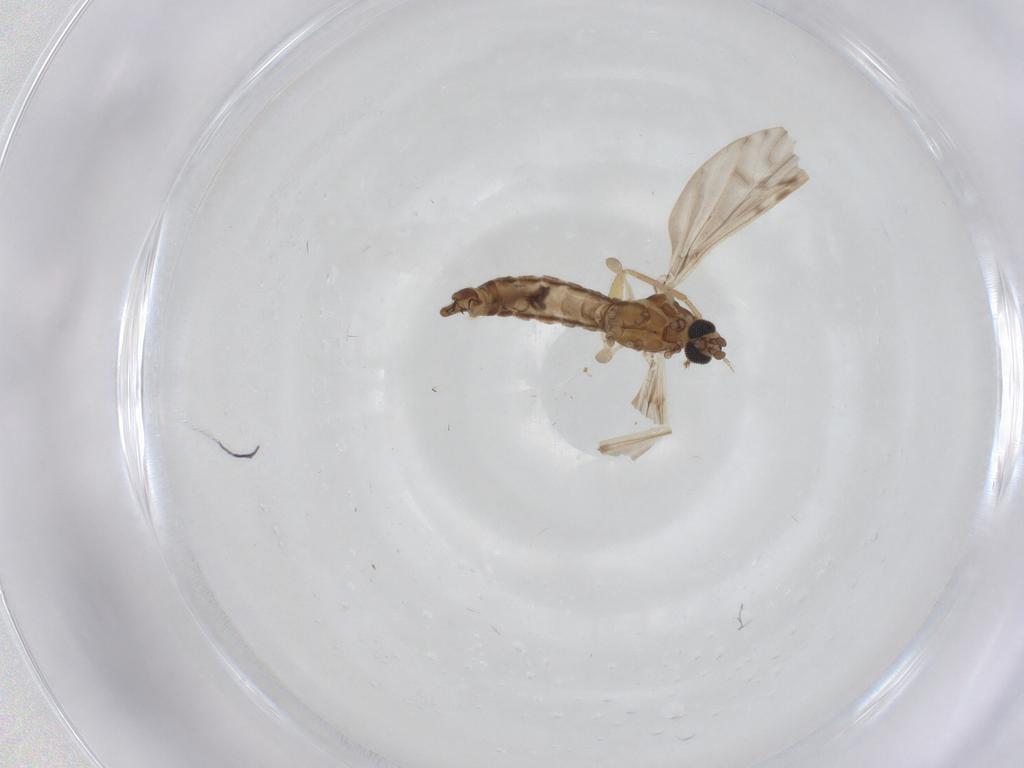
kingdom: Animalia
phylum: Arthropoda
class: Insecta
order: Diptera
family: Hybotidae
